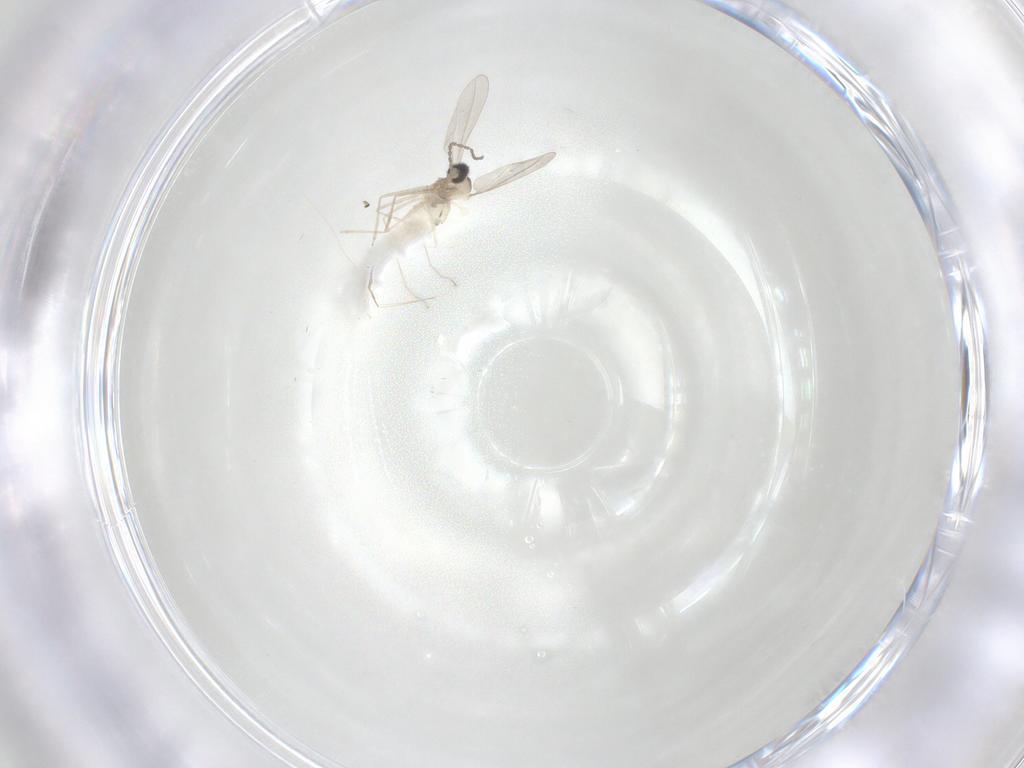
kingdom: Animalia
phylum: Arthropoda
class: Insecta
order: Diptera
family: Cecidomyiidae
